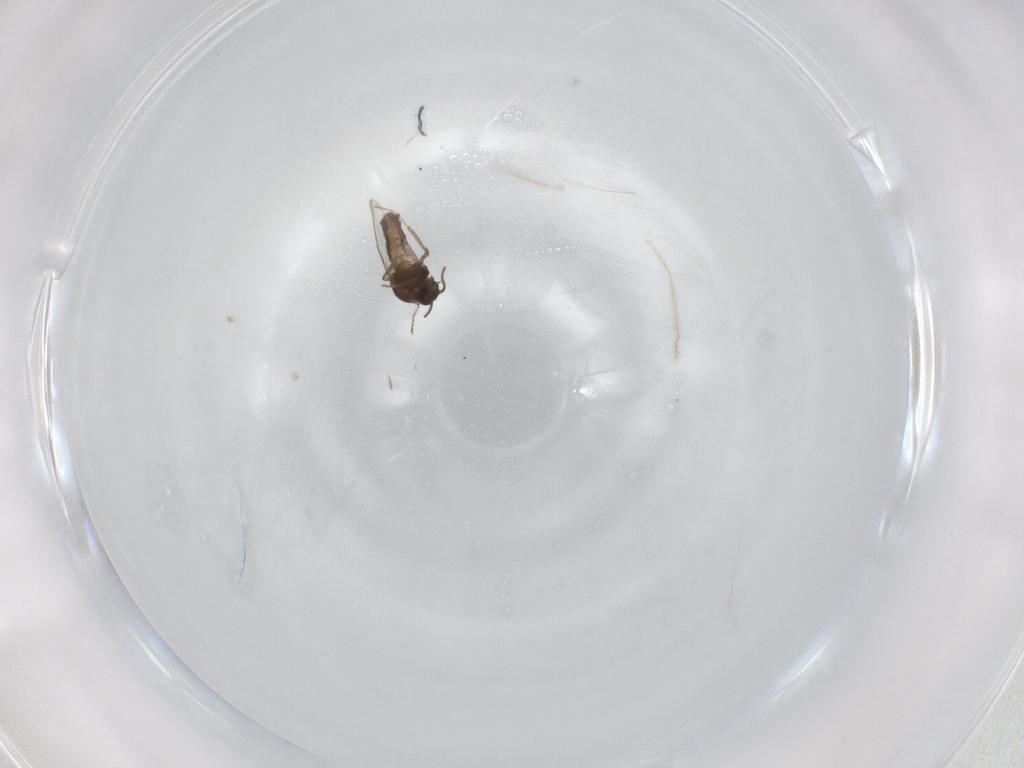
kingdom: Animalia
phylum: Arthropoda
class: Insecta
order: Diptera
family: Ceratopogonidae
